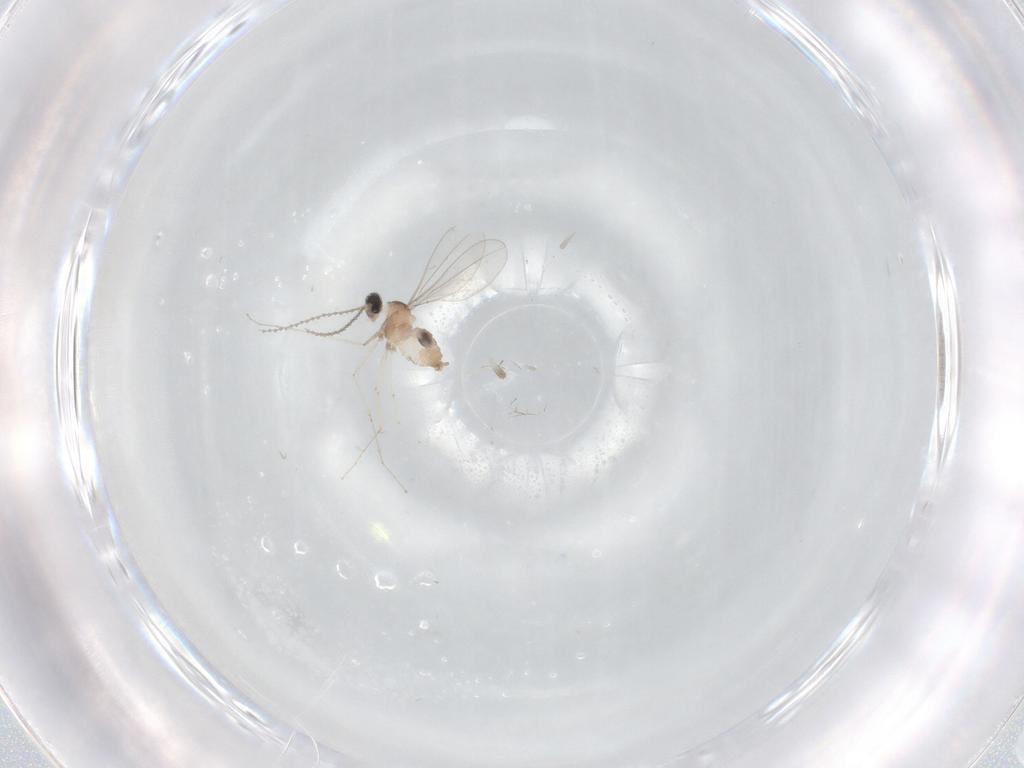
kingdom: Animalia
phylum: Arthropoda
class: Insecta
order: Diptera
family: Cecidomyiidae
